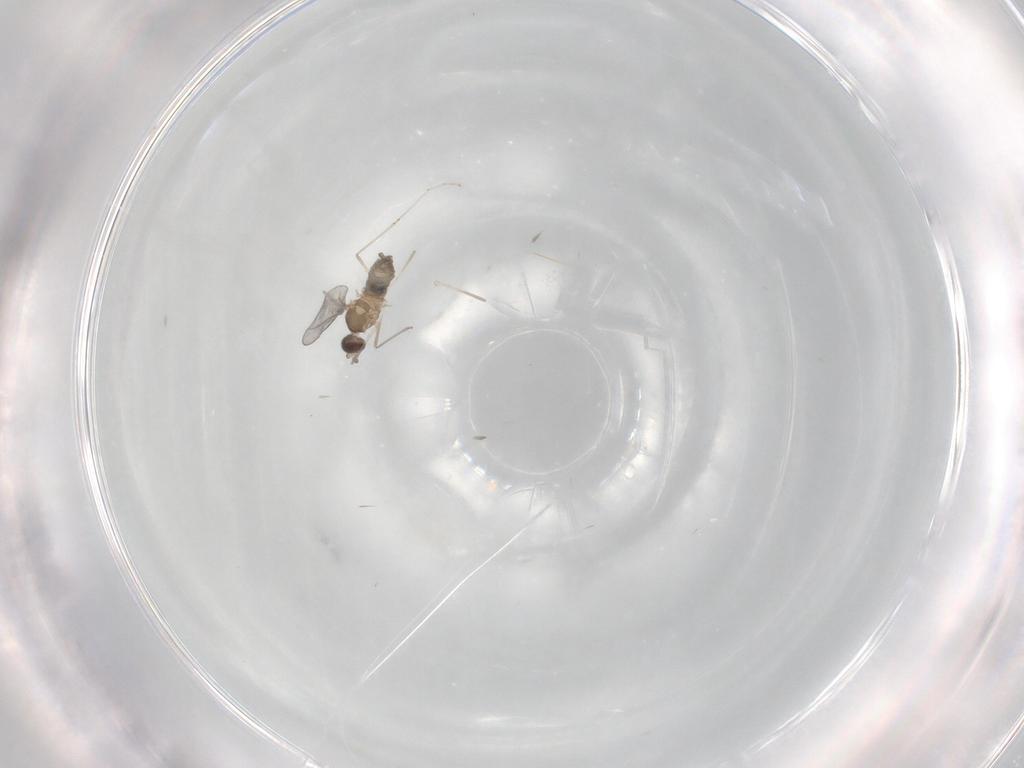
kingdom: Animalia
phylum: Arthropoda
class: Insecta
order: Diptera
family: Cecidomyiidae
